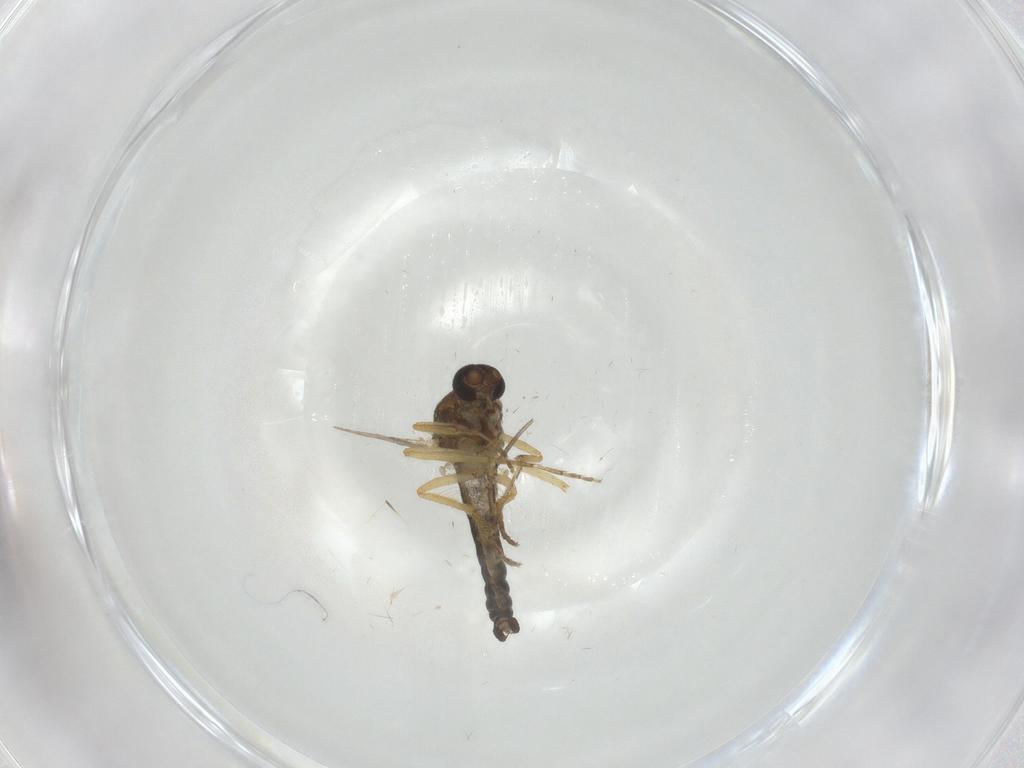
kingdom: Animalia
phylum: Arthropoda
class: Insecta
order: Diptera
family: Ceratopogonidae
